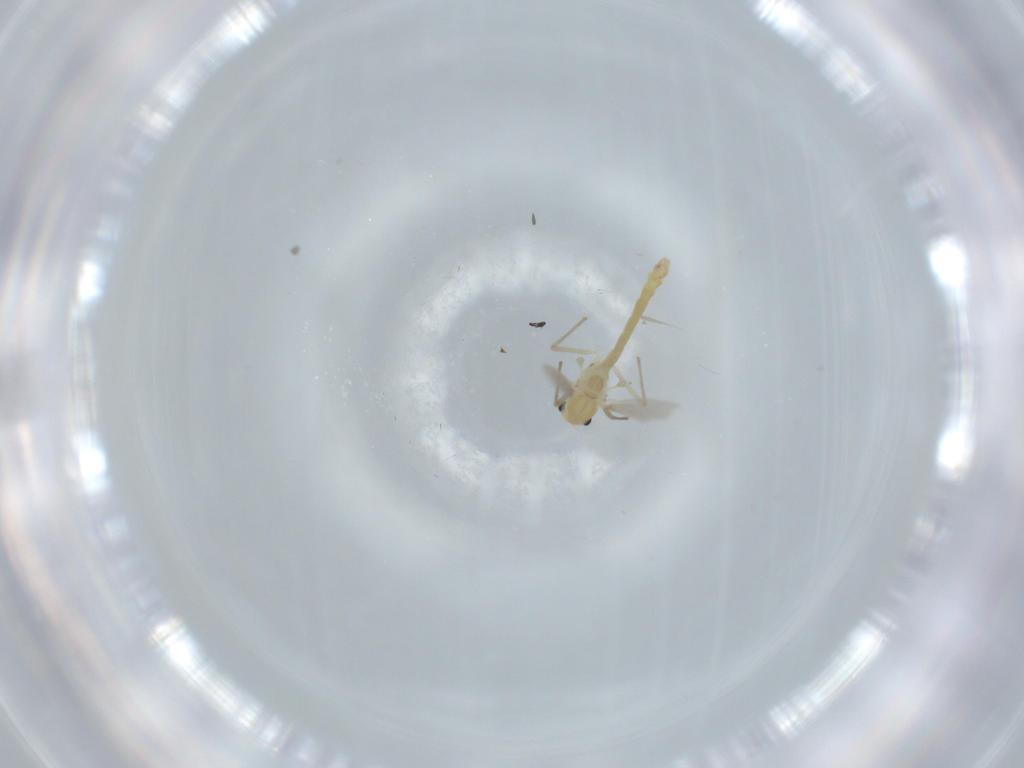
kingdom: Animalia
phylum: Arthropoda
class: Insecta
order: Diptera
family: Chironomidae
